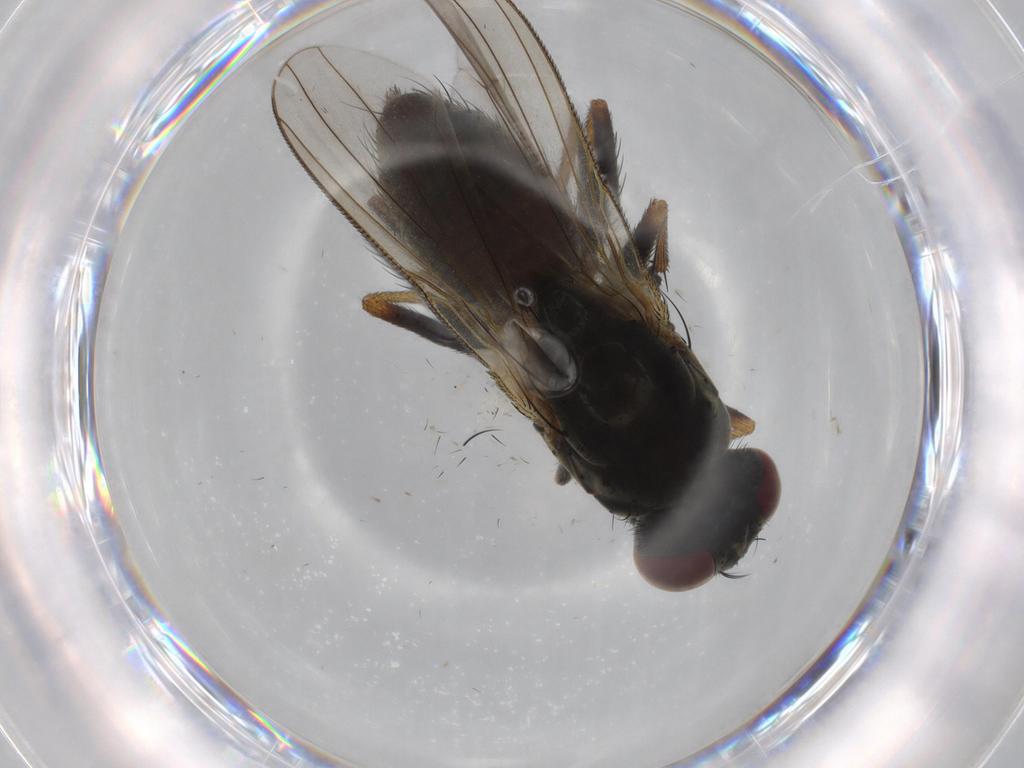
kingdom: Animalia
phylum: Arthropoda
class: Insecta
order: Diptera
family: Muscidae
